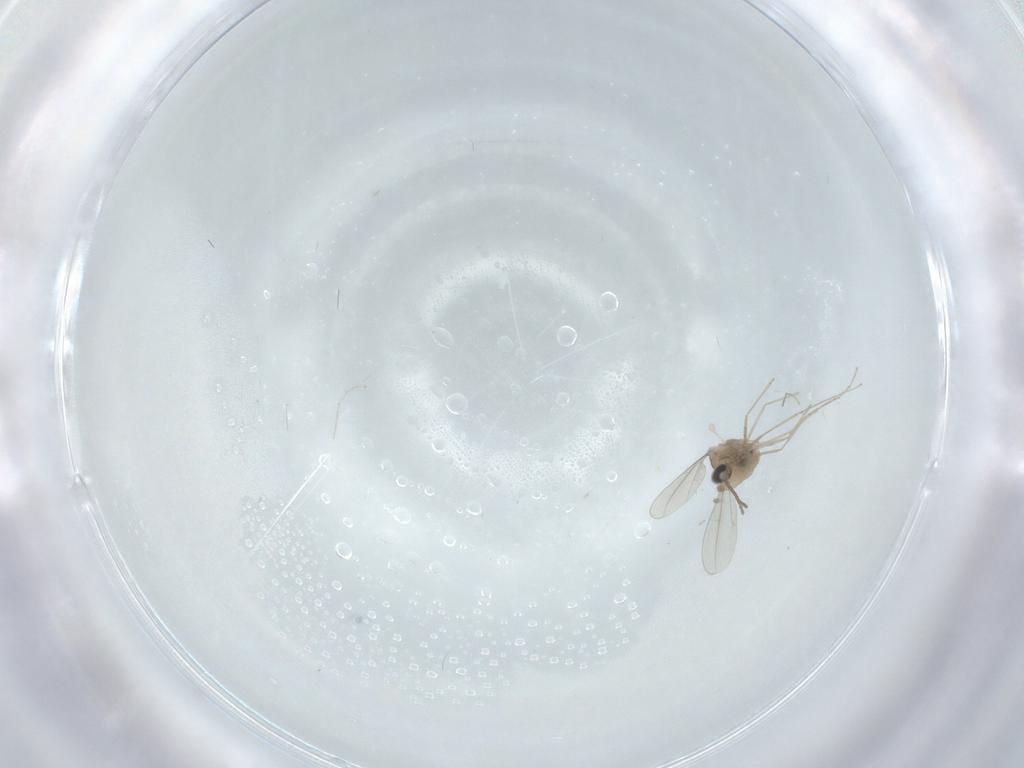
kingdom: Animalia
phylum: Arthropoda
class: Insecta
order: Diptera
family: Cecidomyiidae
